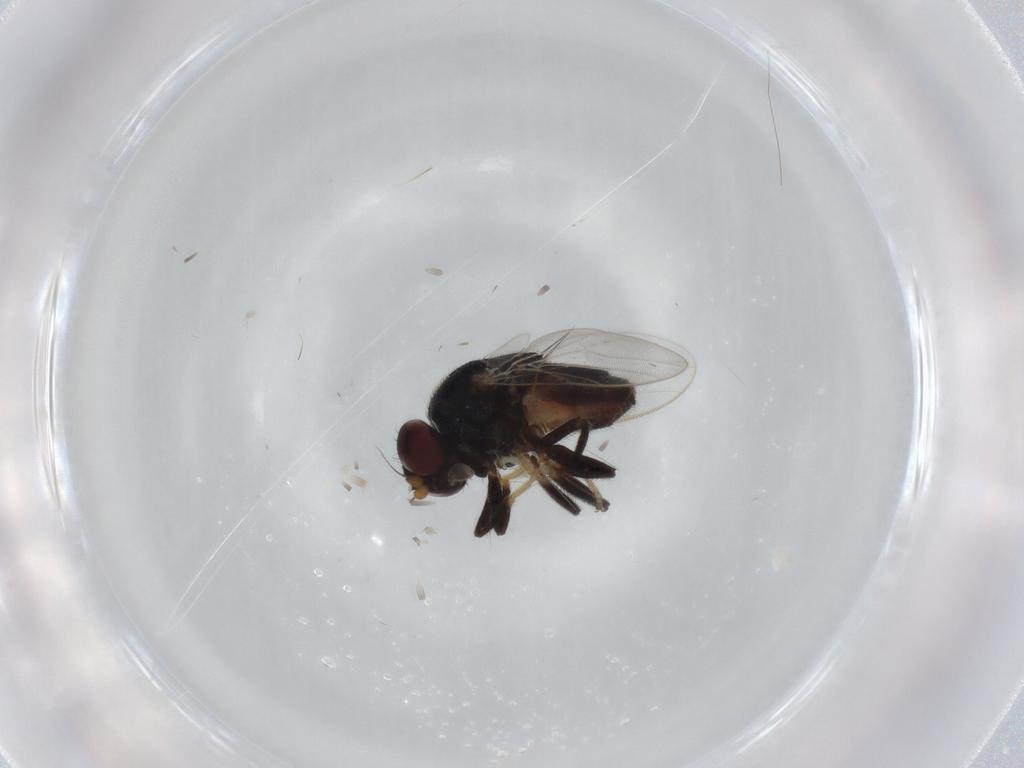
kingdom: Animalia
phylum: Arthropoda
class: Insecta
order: Diptera
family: Chloropidae
